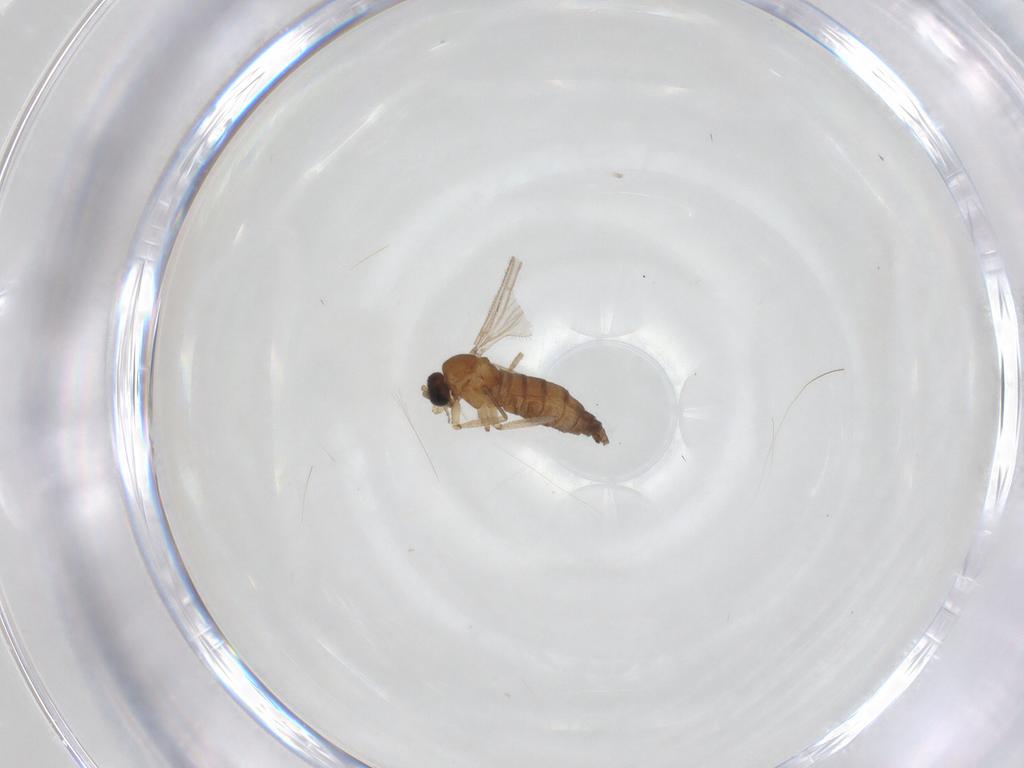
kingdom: Animalia
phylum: Arthropoda
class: Insecta
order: Diptera
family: Sciaridae
